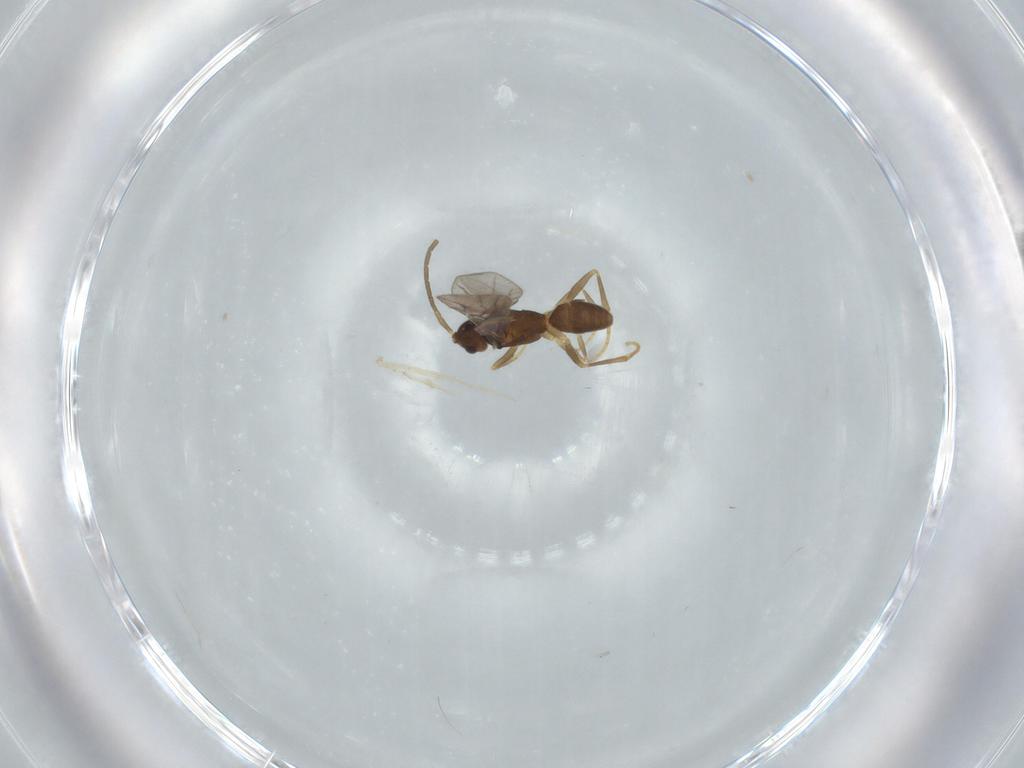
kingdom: Animalia
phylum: Arthropoda
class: Insecta
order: Hymenoptera
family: Embolemidae
